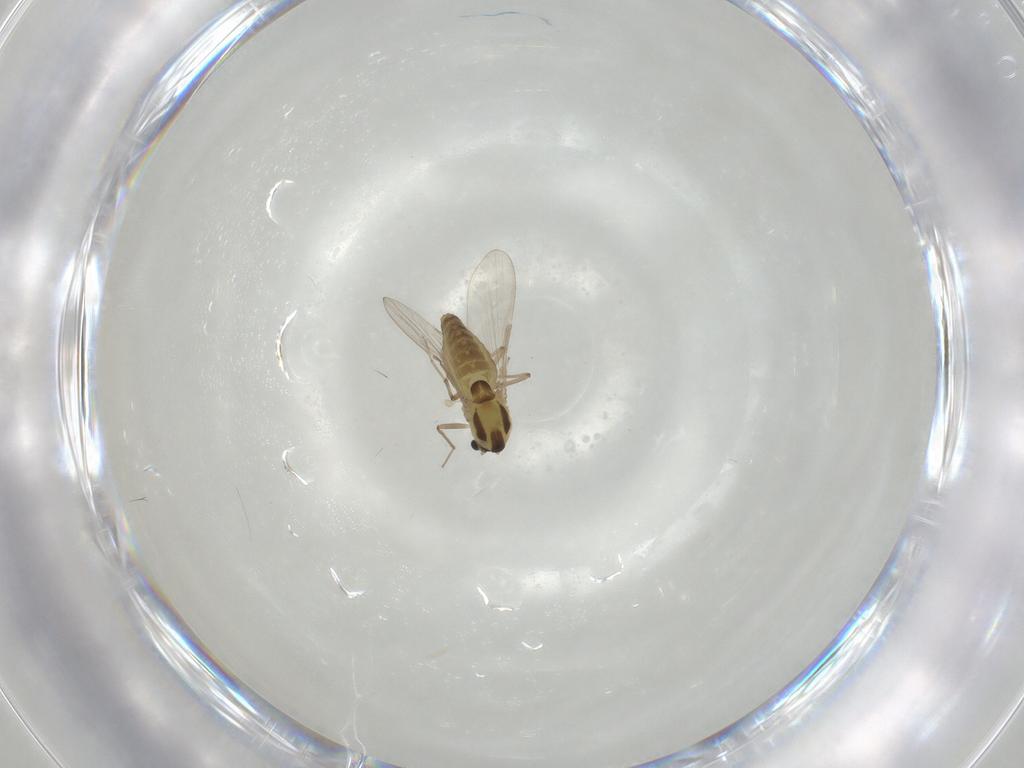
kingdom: Animalia
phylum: Arthropoda
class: Insecta
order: Diptera
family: Chironomidae
